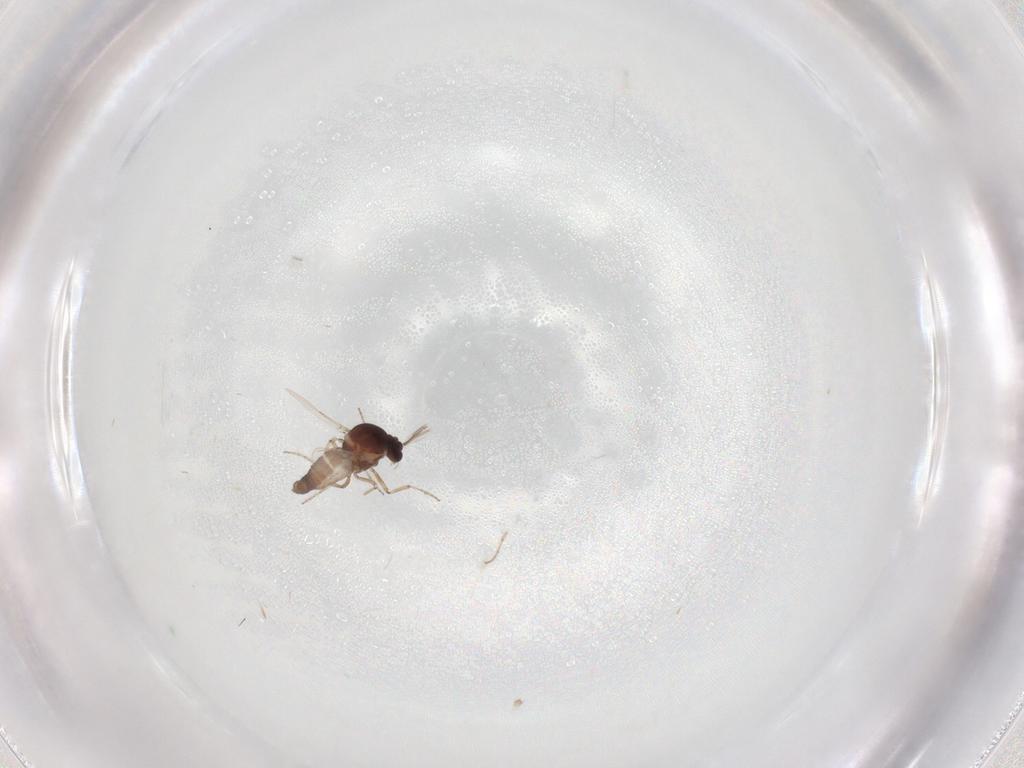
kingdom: Animalia
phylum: Arthropoda
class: Insecta
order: Diptera
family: Ceratopogonidae
